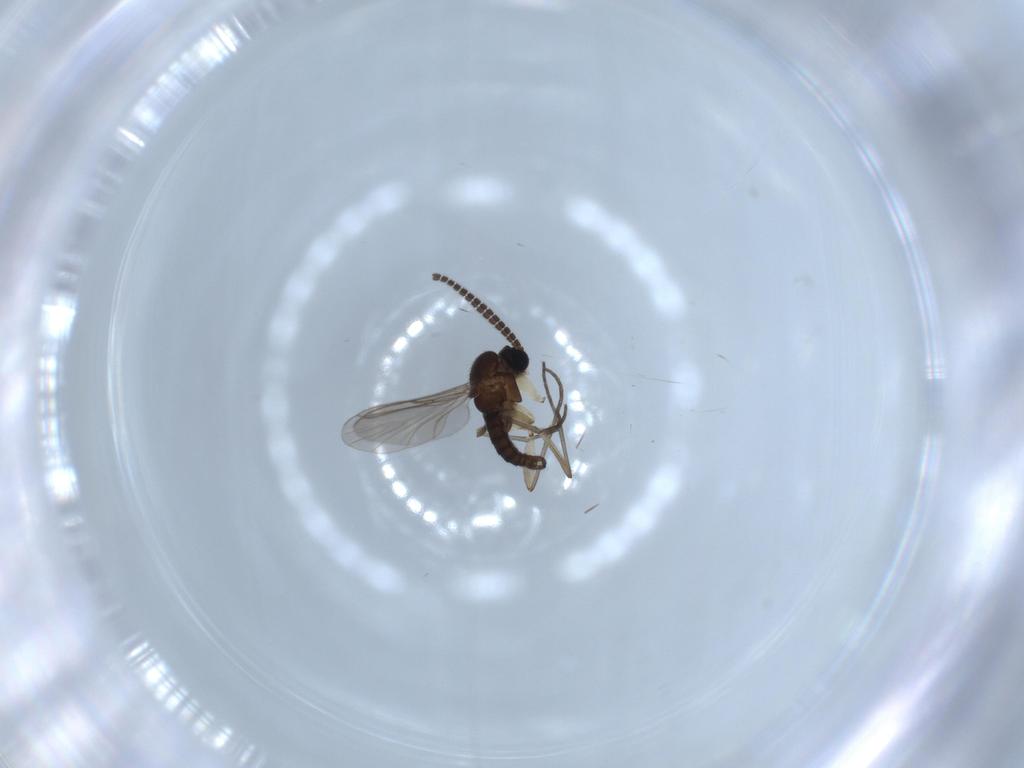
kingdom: Animalia
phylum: Arthropoda
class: Insecta
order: Diptera
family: Sciaridae
